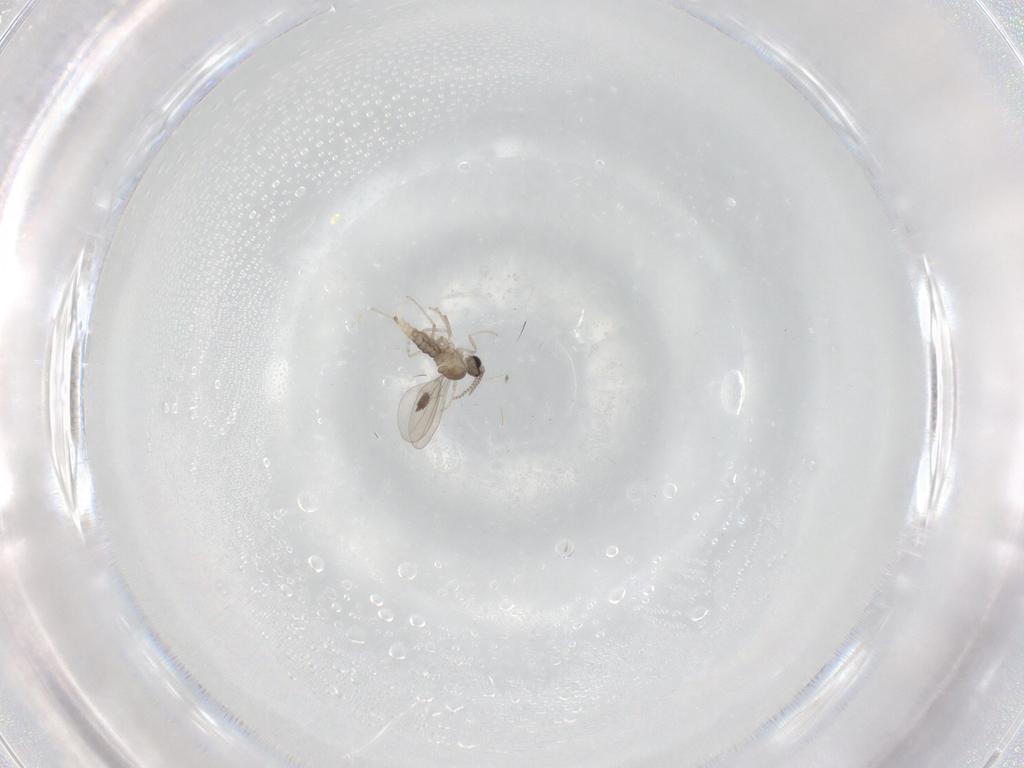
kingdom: Animalia
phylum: Arthropoda
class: Insecta
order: Diptera
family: Cecidomyiidae
